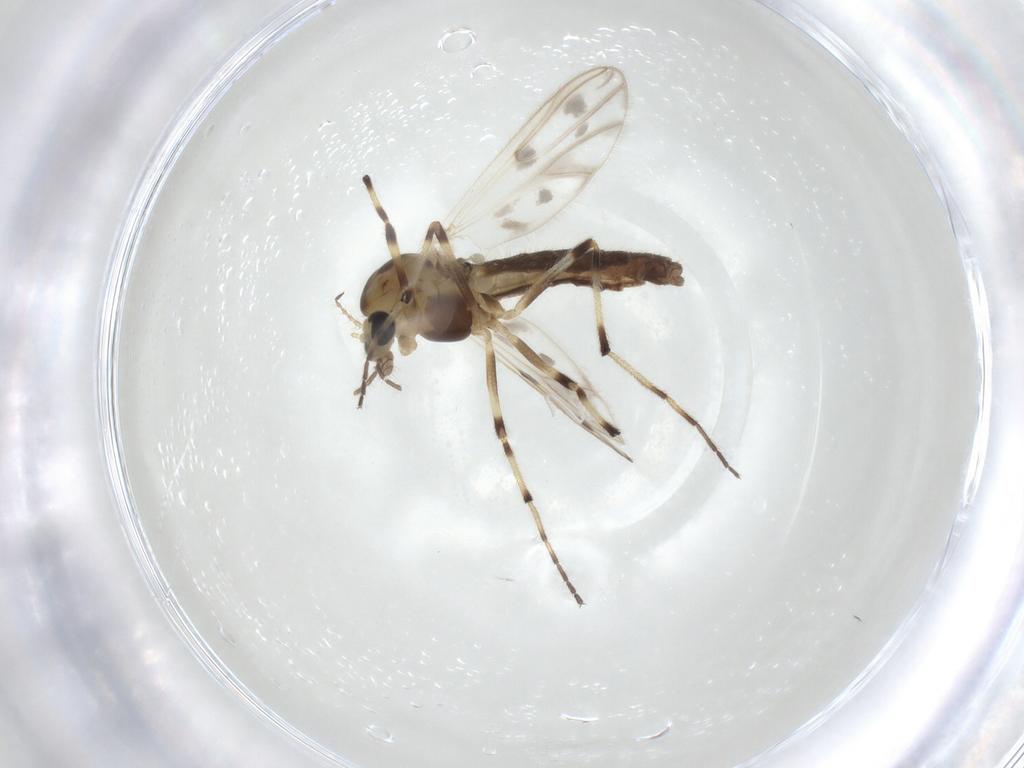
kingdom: Animalia
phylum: Arthropoda
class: Insecta
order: Diptera
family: Chironomidae
